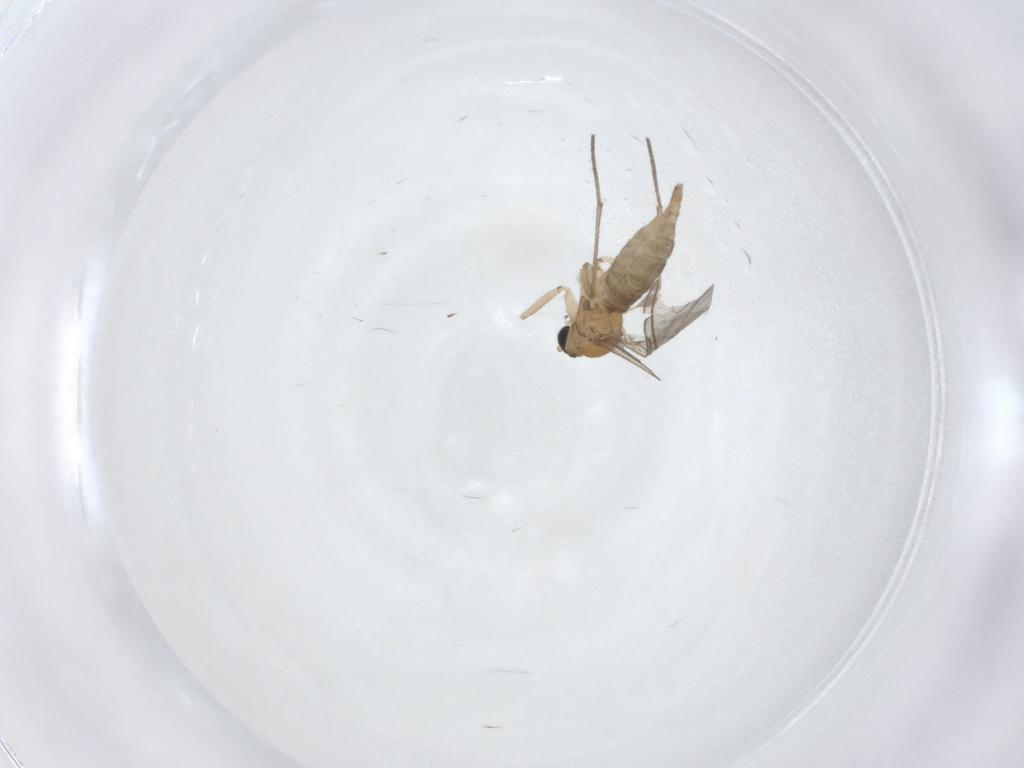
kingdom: Animalia
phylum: Arthropoda
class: Insecta
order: Diptera
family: Sciaridae
